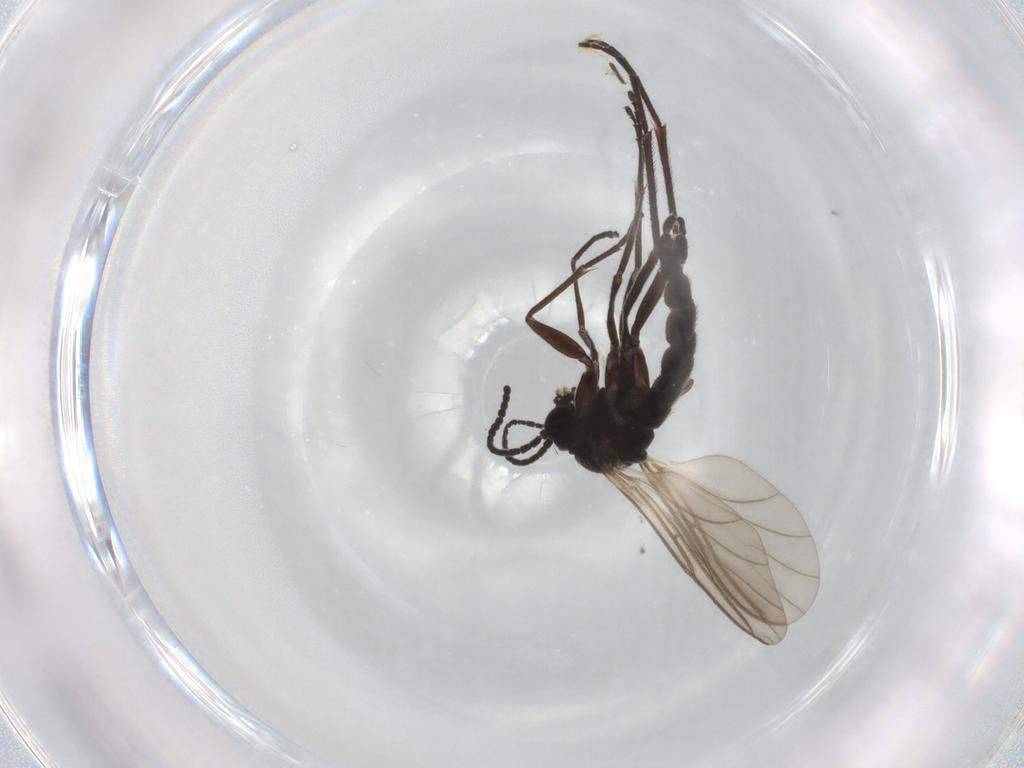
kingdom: Animalia
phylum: Arthropoda
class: Insecta
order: Diptera
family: Sciaridae
